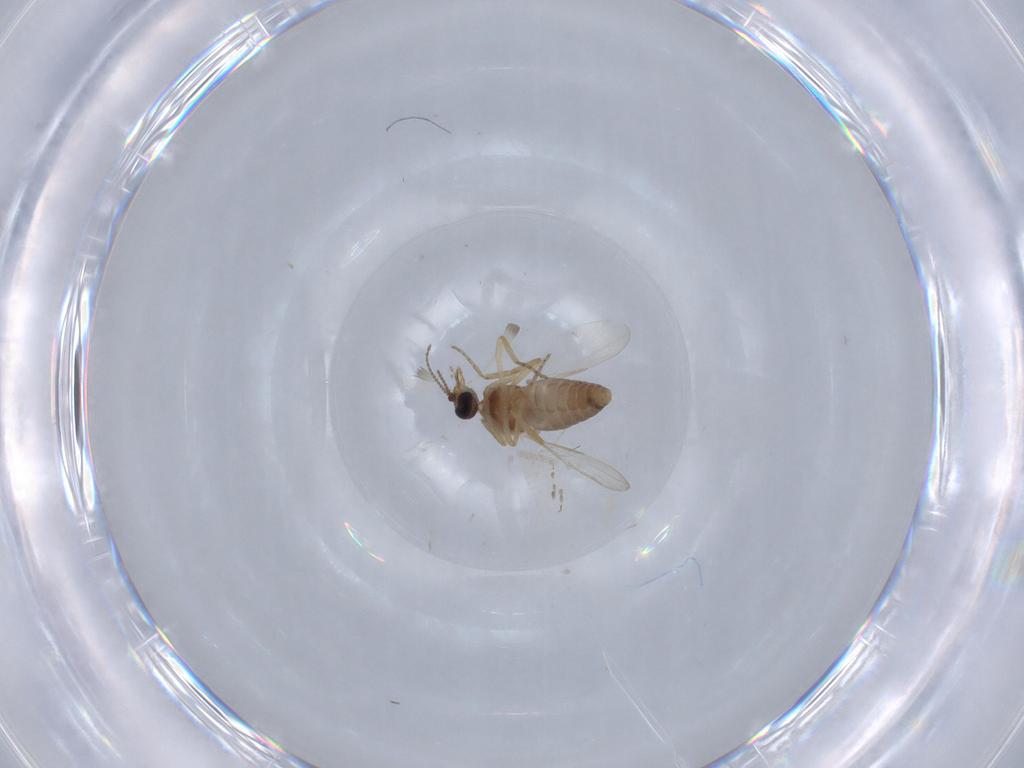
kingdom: Animalia
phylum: Arthropoda
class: Insecta
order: Diptera
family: Ceratopogonidae
